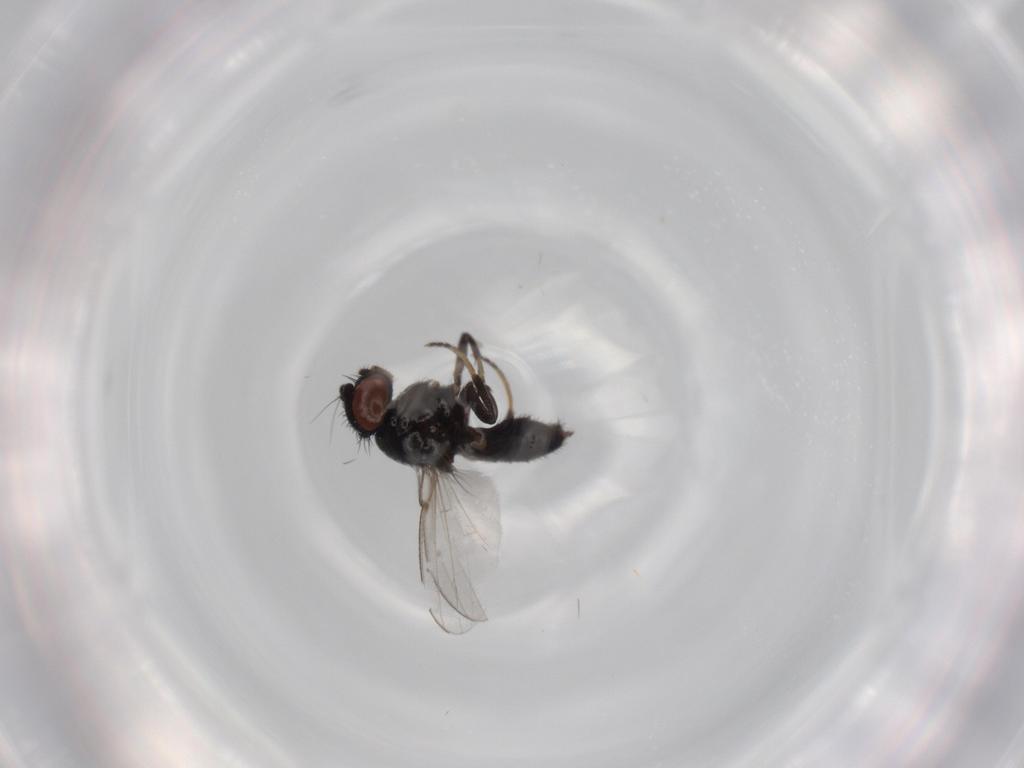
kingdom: Animalia
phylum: Arthropoda
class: Insecta
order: Diptera
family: Milichiidae
